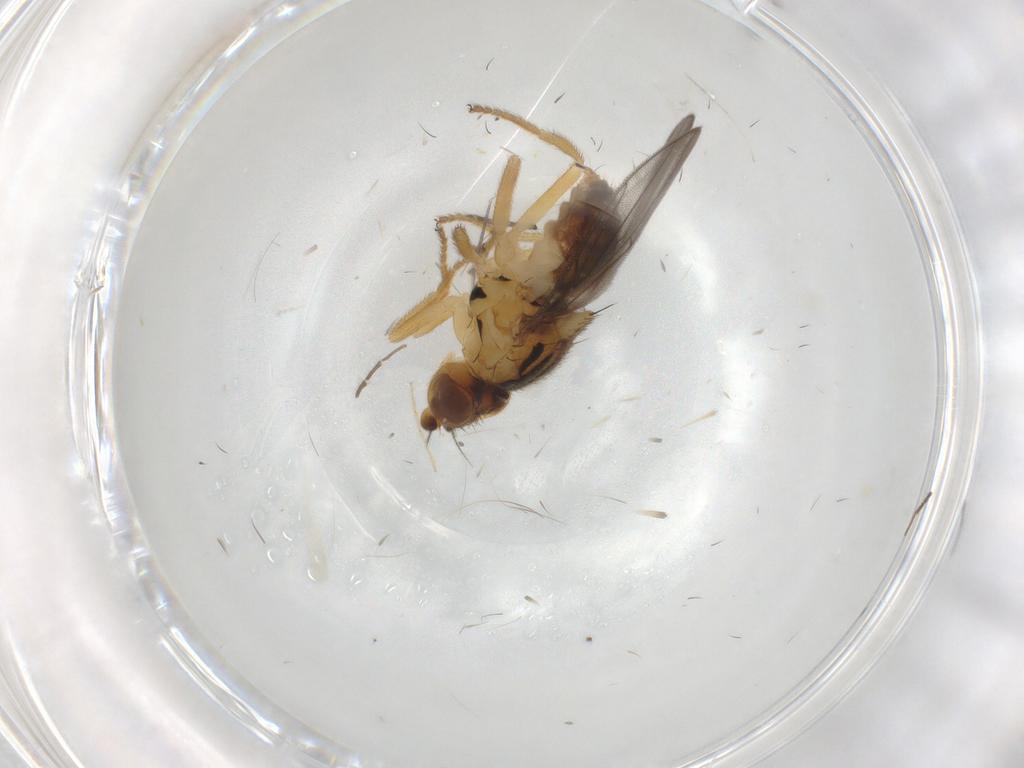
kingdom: Animalia
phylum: Arthropoda
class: Insecta
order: Diptera
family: Chloropidae
